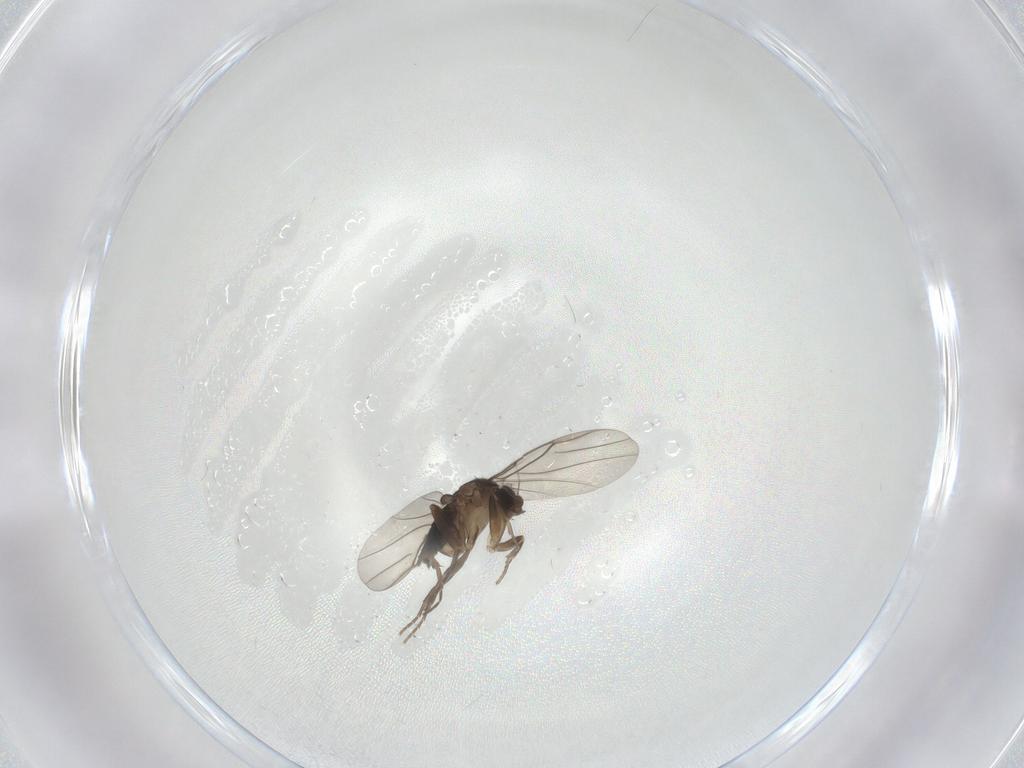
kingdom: Animalia
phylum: Arthropoda
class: Insecta
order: Diptera
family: Phoridae
